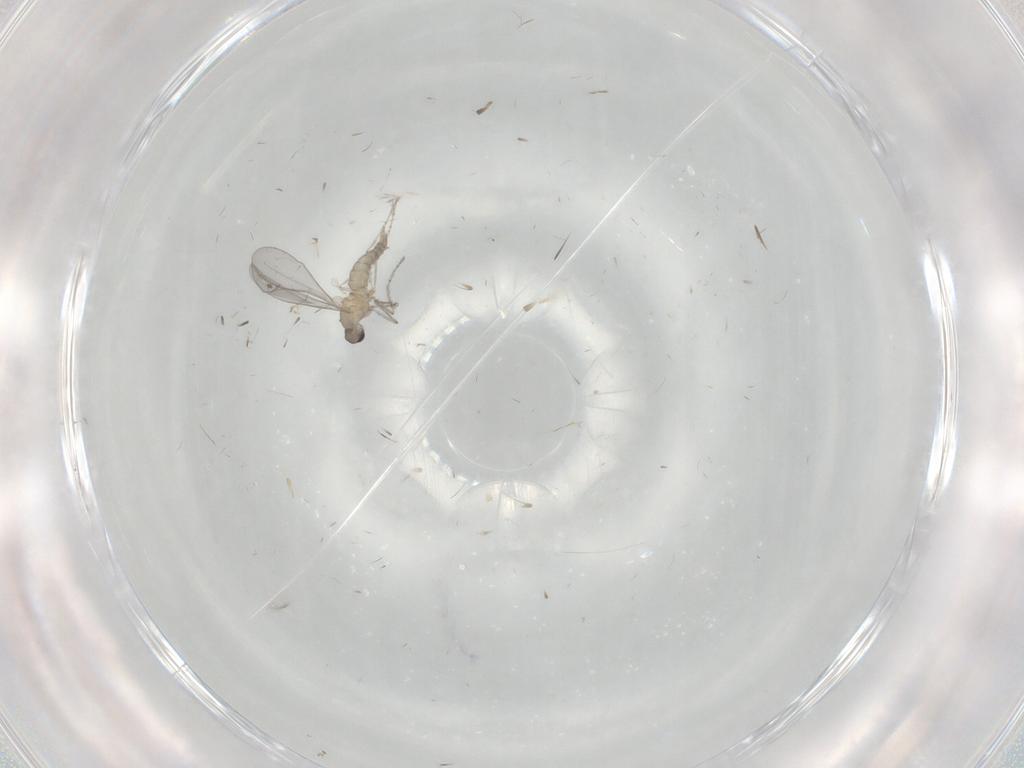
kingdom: Animalia
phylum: Arthropoda
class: Insecta
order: Diptera
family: Culicidae
